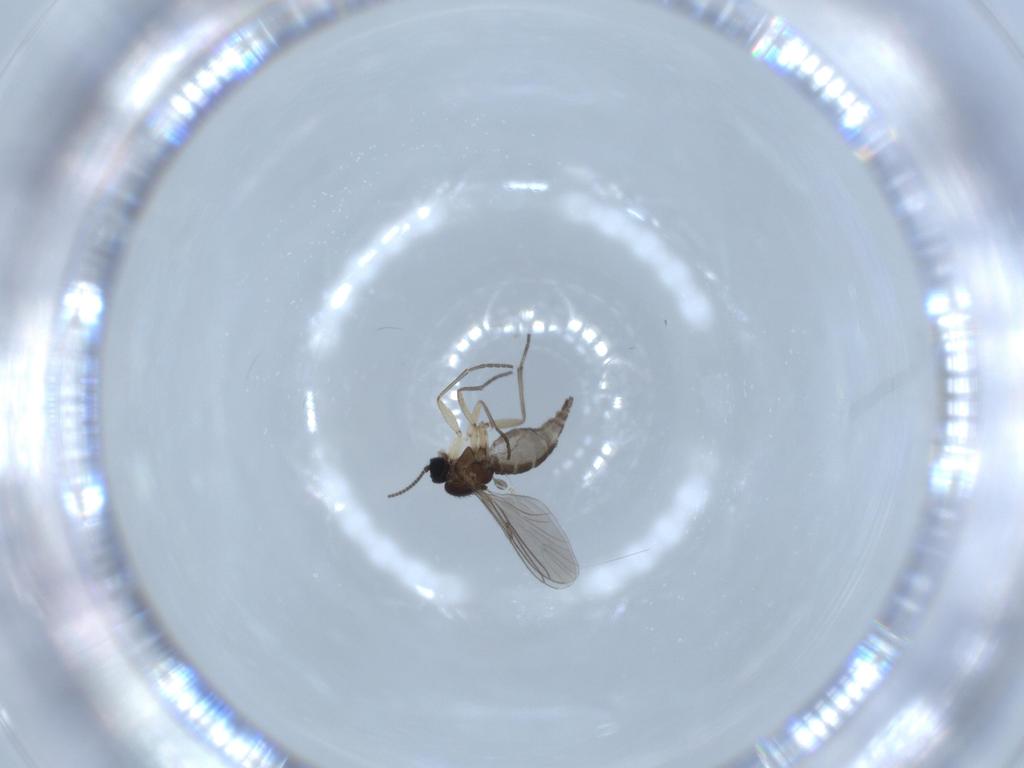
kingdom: Animalia
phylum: Arthropoda
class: Insecta
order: Diptera
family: Sciaridae
